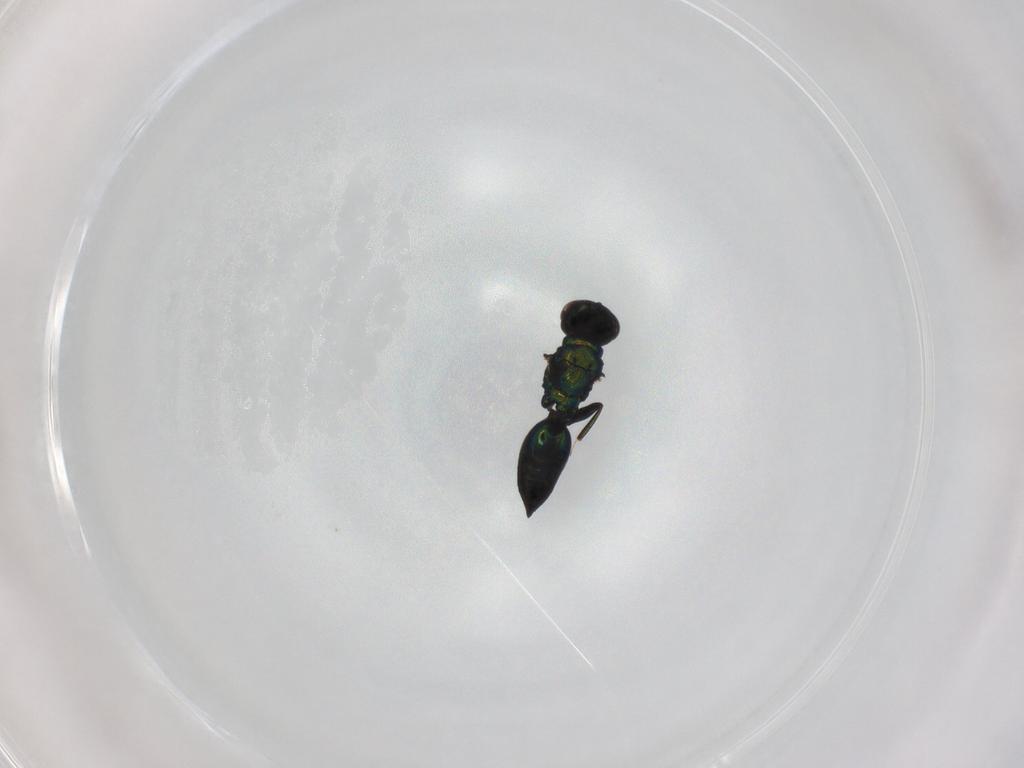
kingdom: Animalia
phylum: Arthropoda
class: Insecta
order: Hymenoptera
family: Eulophidae
